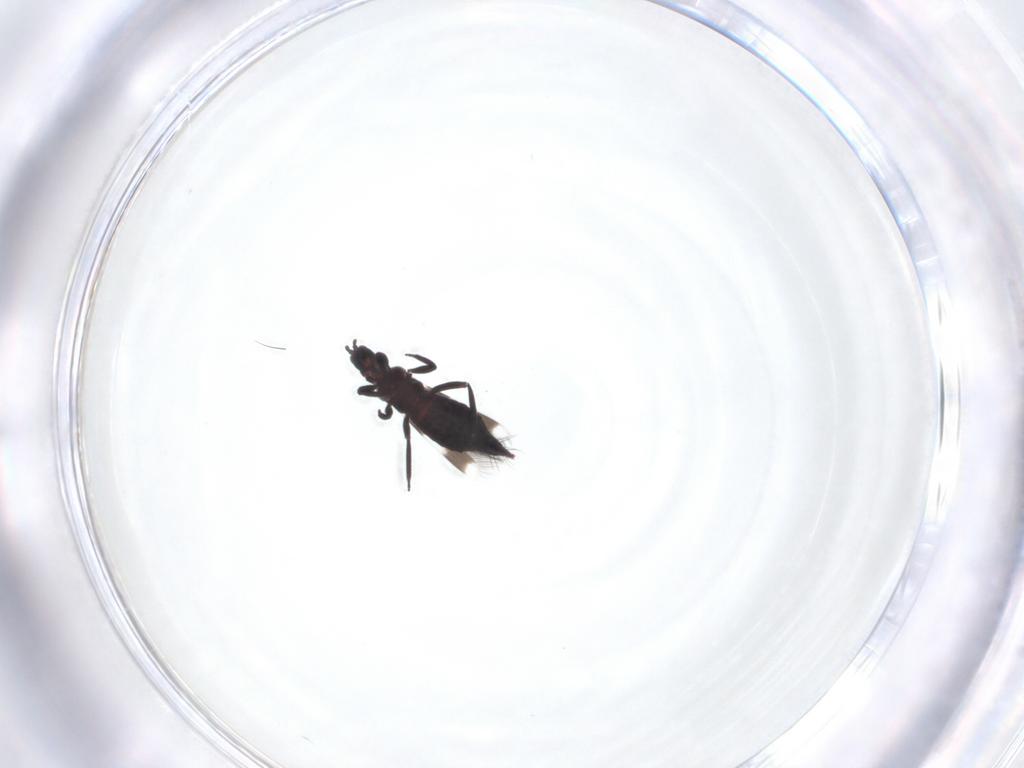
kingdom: Animalia
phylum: Arthropoda
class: Insecta
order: Thysanoptera
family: Aeolothripidae
